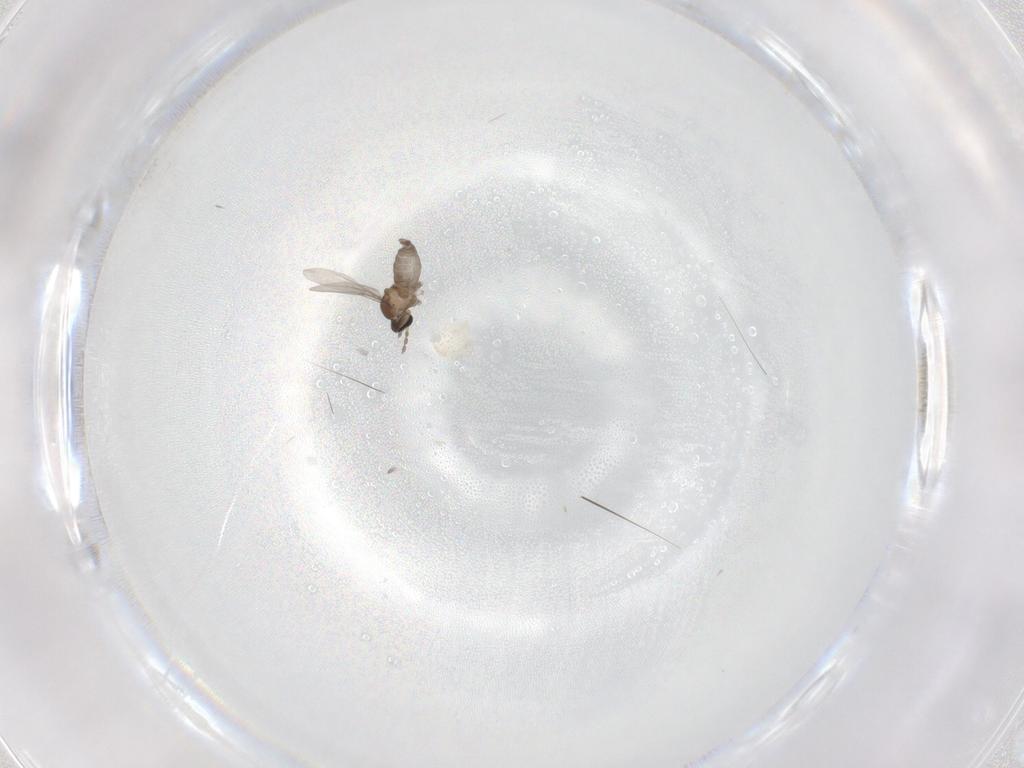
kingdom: Animalia
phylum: Arthropoda
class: Insecta
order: Diptera
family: Cecidomyiidae
